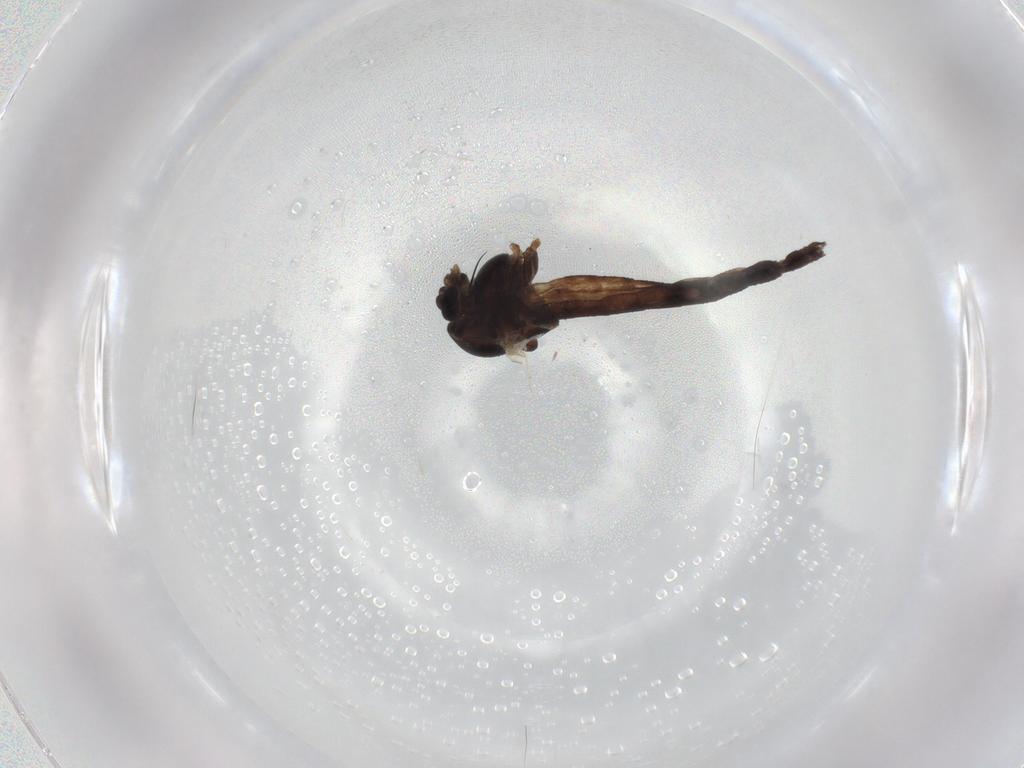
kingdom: Animalia
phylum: Arthropoda
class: Insecta
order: Diptera
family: Chironomidae
